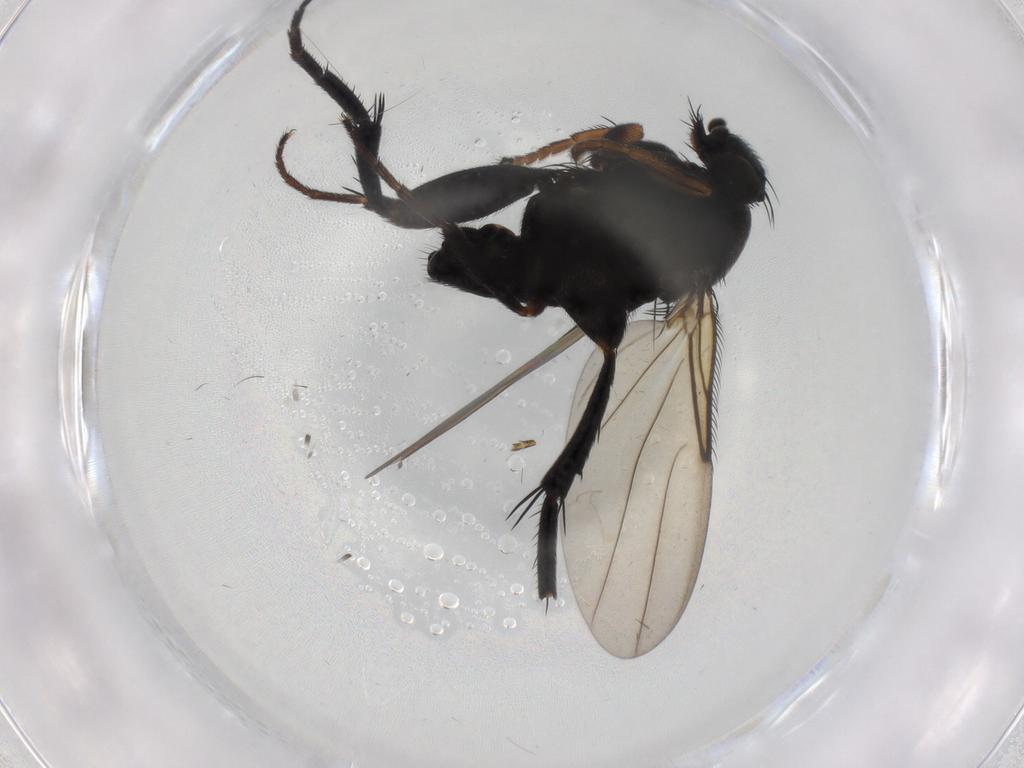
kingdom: Animalia
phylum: Arthropoda
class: Insecta
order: Diptera
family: Phoridae
